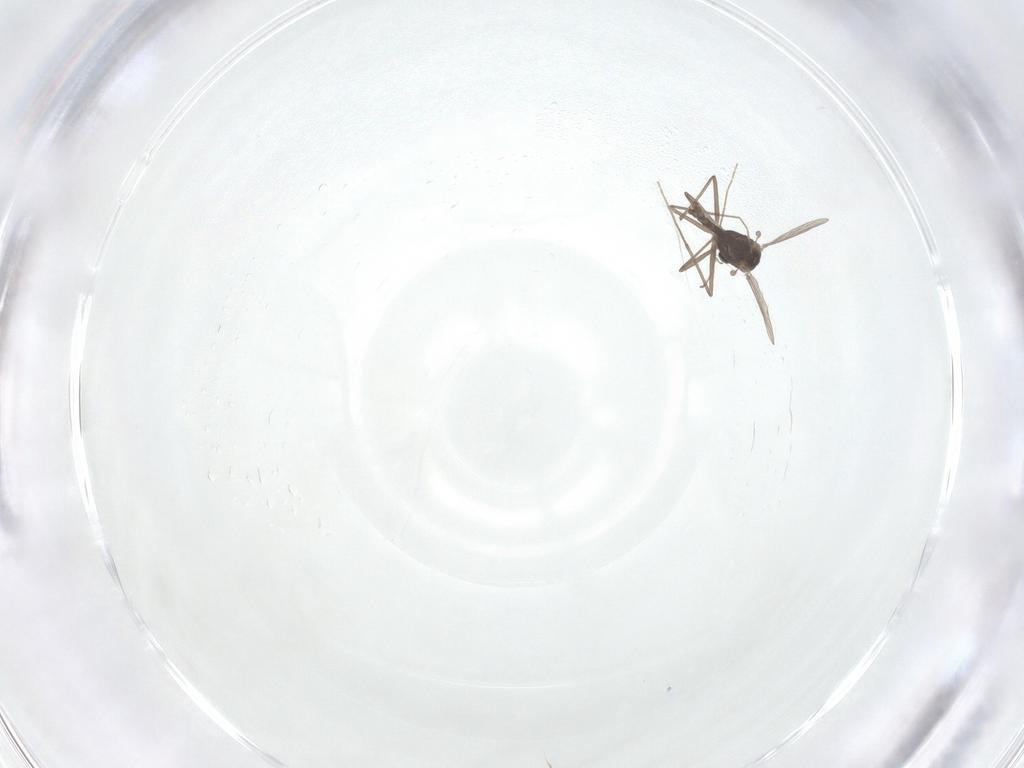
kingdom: Animalia
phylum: Arthropoda
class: Insecta
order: Diptera
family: Chironomidae
